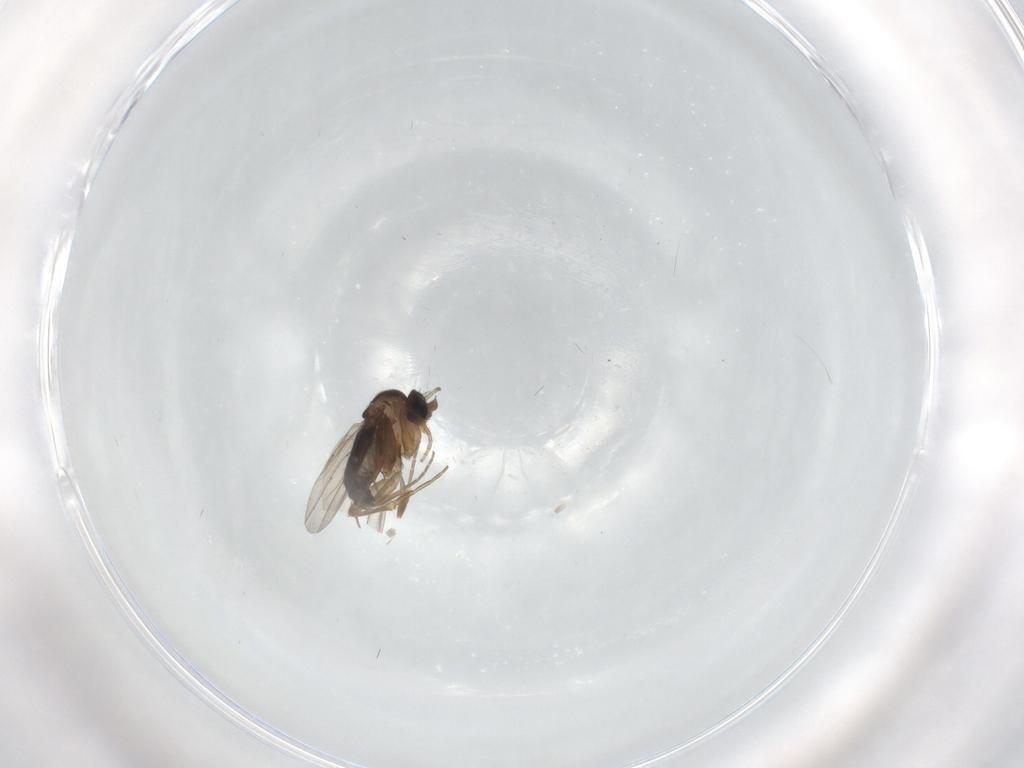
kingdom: Animalia
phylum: Arthropoda
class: Insecta
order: Diptera
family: Phoridae
